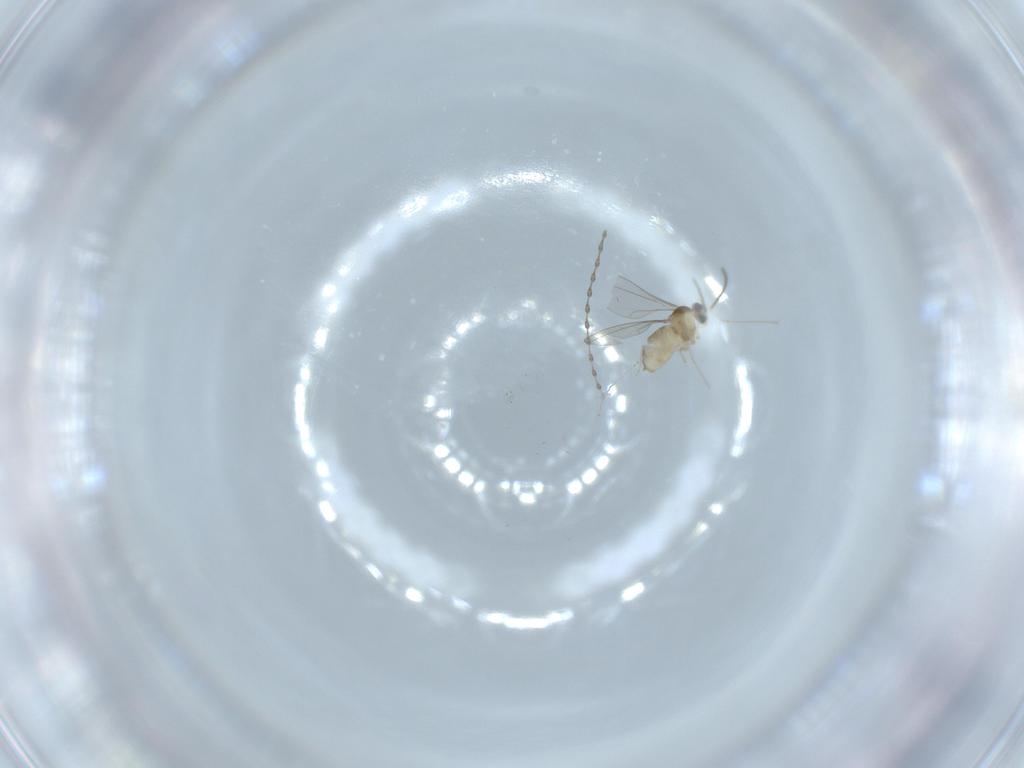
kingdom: Animalia
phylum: Arthropoda
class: Insecta
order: Diptera
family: Cecidomyiidae
